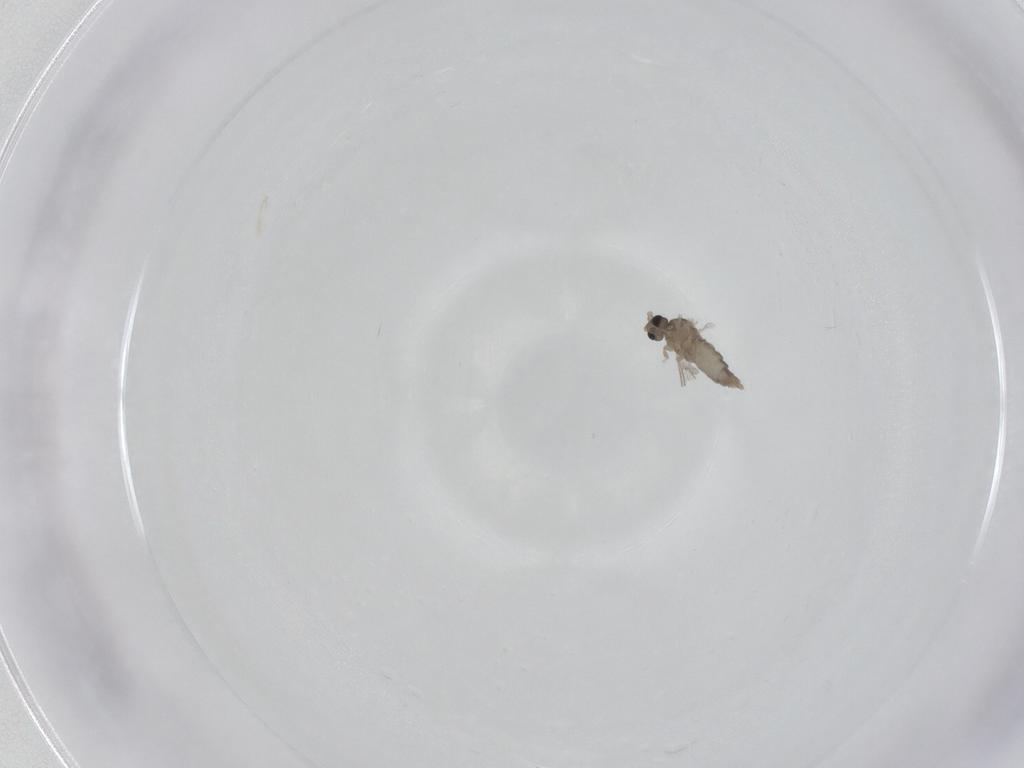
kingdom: Animalia
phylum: Arthropoda
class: Insecta
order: Diptera
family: Cecidomyiidae
